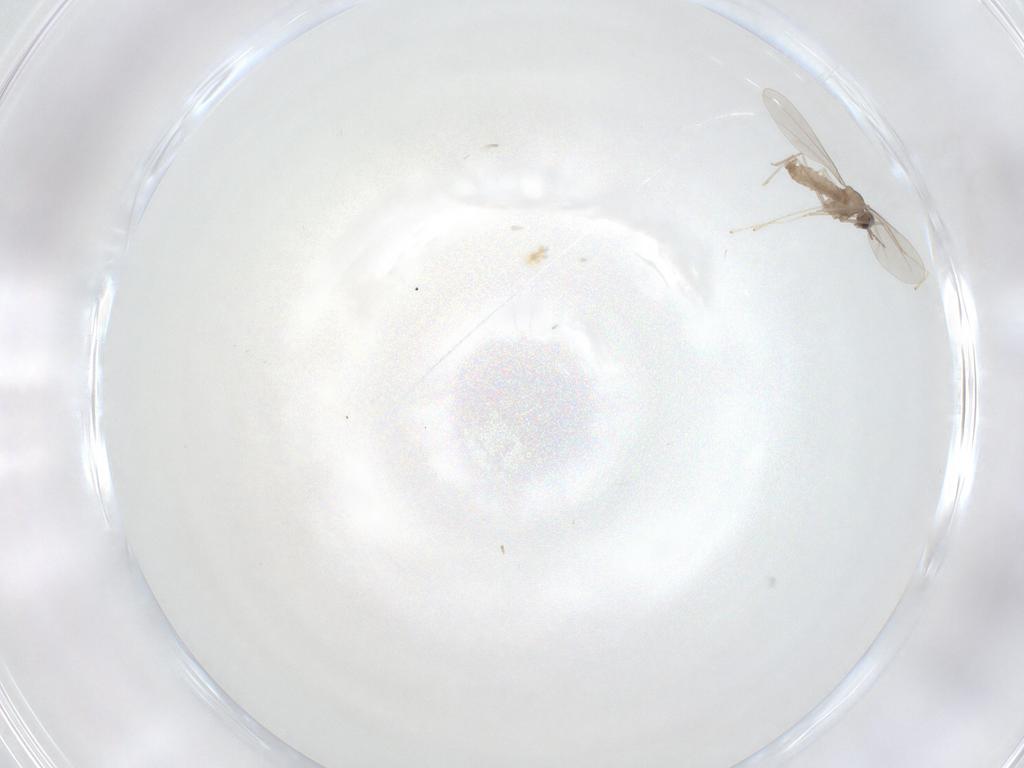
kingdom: Animalia
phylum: Arthropoda
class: Insecta
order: Diptera
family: Cecidomyiidae
